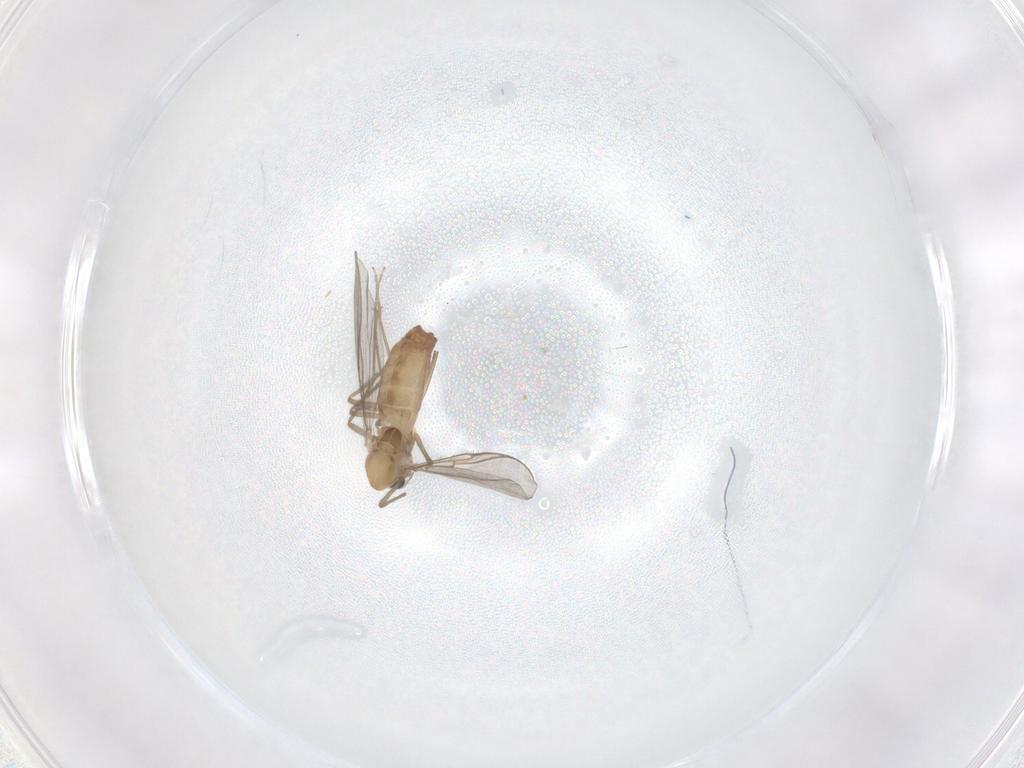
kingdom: Animalia
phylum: Arthropoda
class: Insecta
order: Diptera
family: Chironomidae
